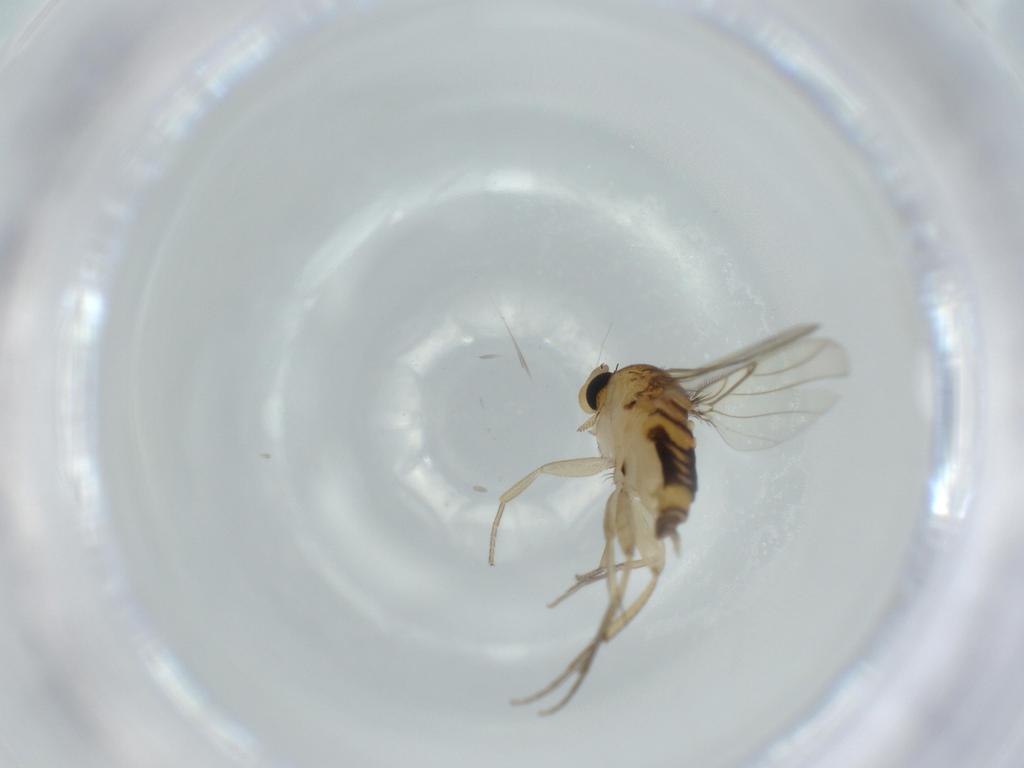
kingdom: Animalia
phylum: Arthropoda
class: Insecta
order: Diptera
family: Phoridae
